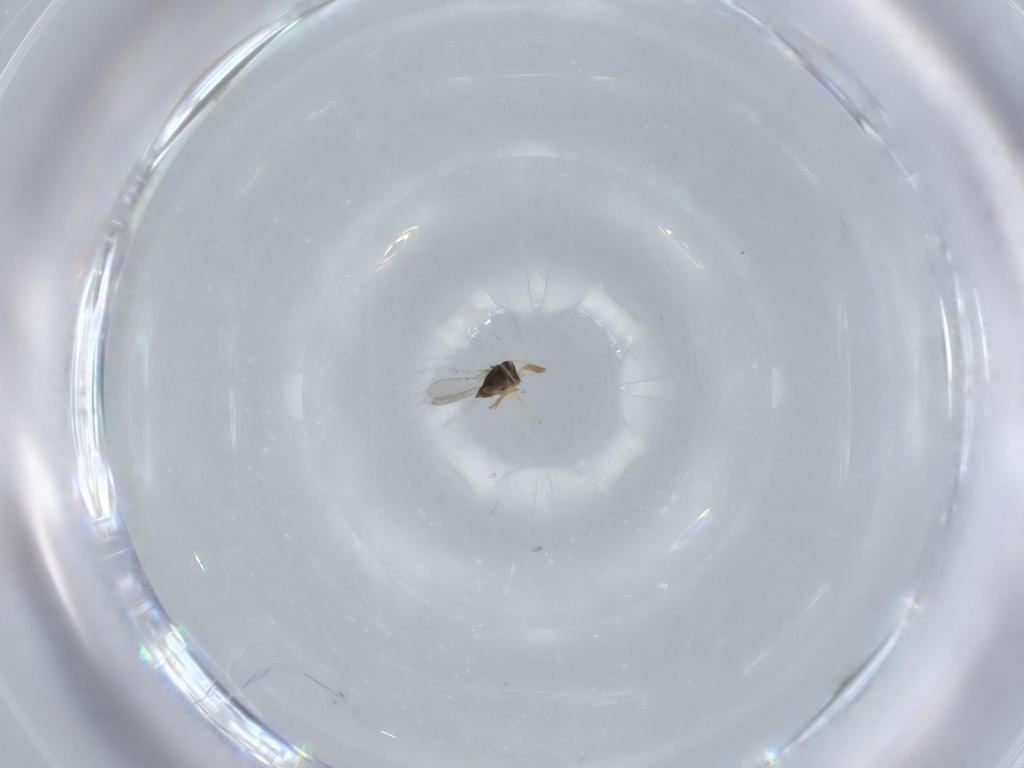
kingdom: Animalia
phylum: Arthropoda
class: Insecta
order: Hymenoptera
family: Encyrtidae
